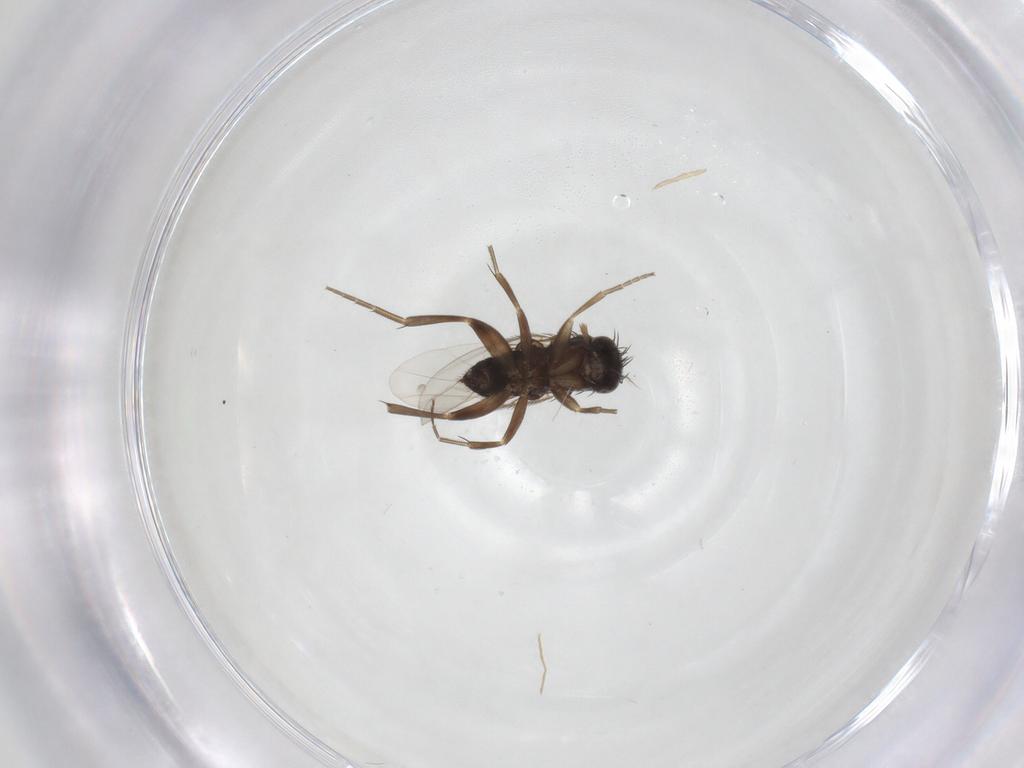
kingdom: Animalia
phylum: Arthropoda
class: Insecta
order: Diptera
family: Phoridae
